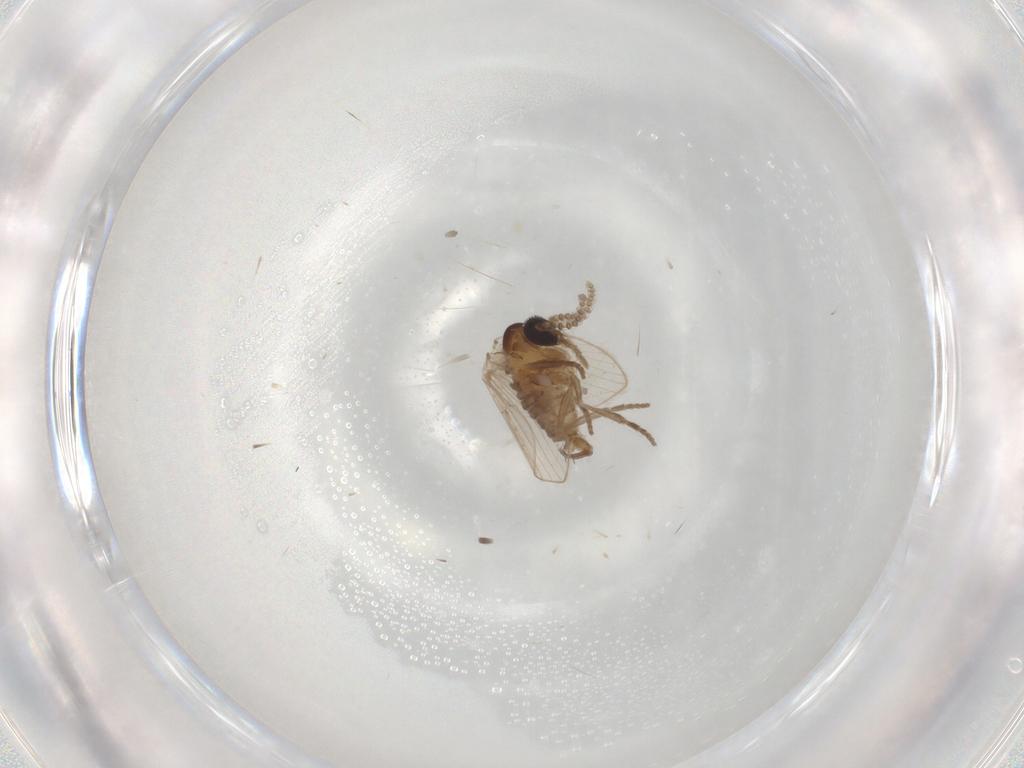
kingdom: Animalia
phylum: Arthropoda
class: Insecta
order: Diptera
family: Psychodidae
